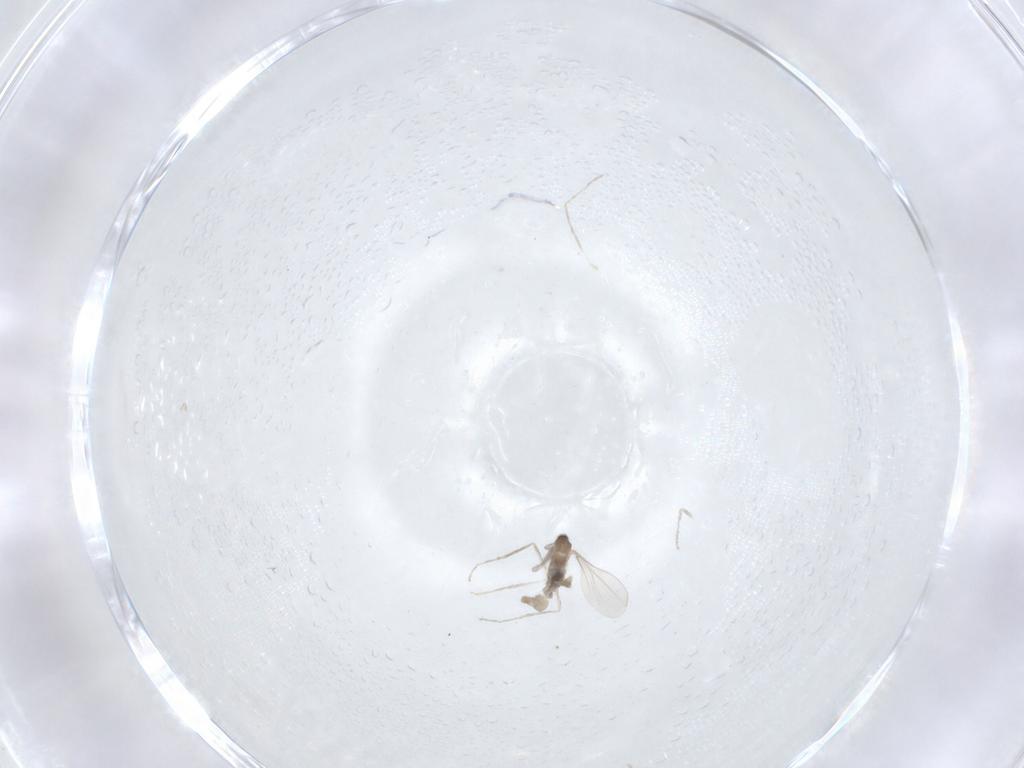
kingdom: Animalia
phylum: Arthropoda
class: Insecta
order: Diptera
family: Cecidomyiidae
